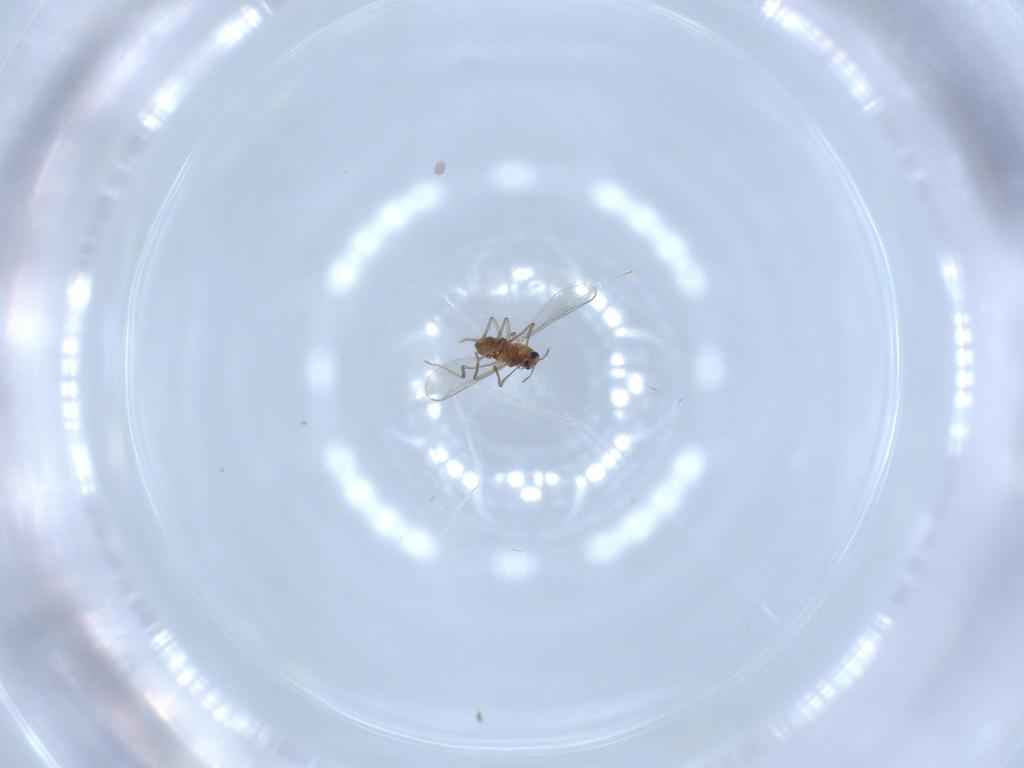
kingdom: Animalia
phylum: Arthropoda
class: Insecta
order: Diptera
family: Chironomidae
